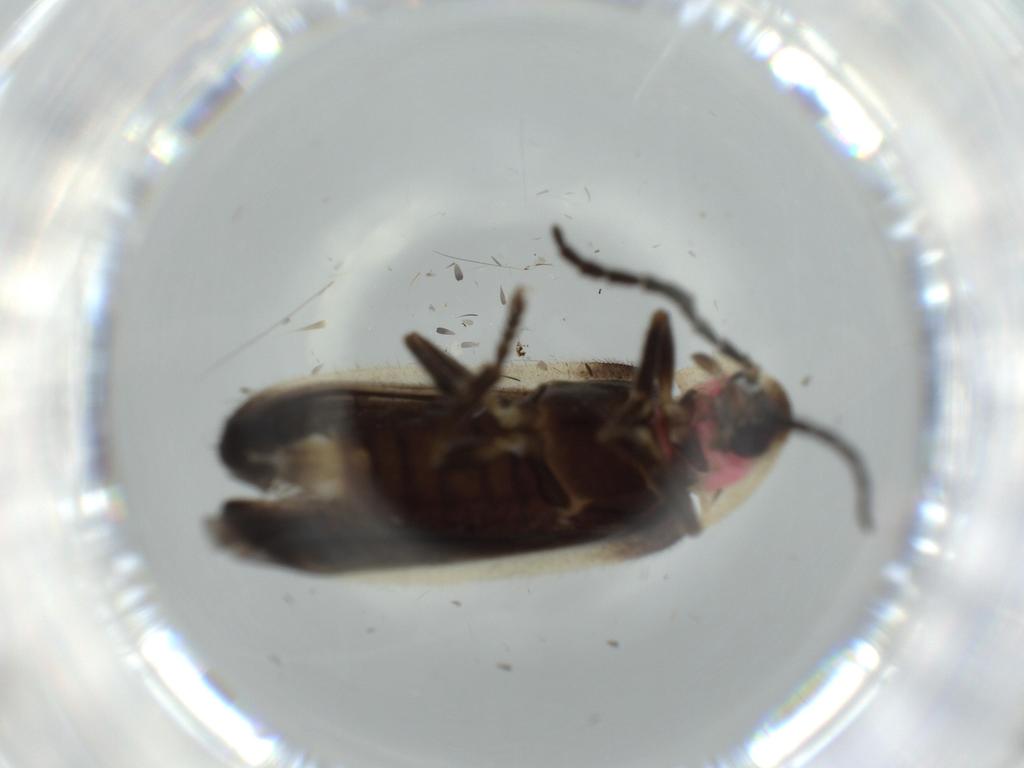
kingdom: Animalia
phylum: Arthropoda
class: Insecta
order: Coleoptera
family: Lampyridae
